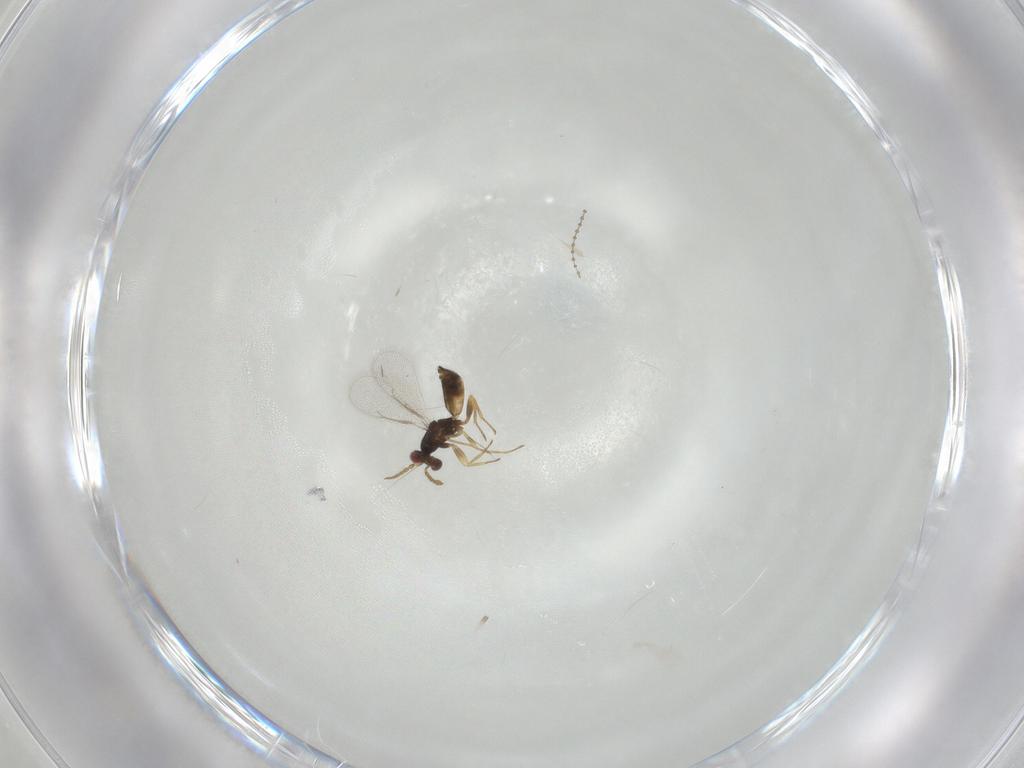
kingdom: Animalia
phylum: Arthropoda
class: Insecta
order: Hymenoptera
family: Eulophidae
